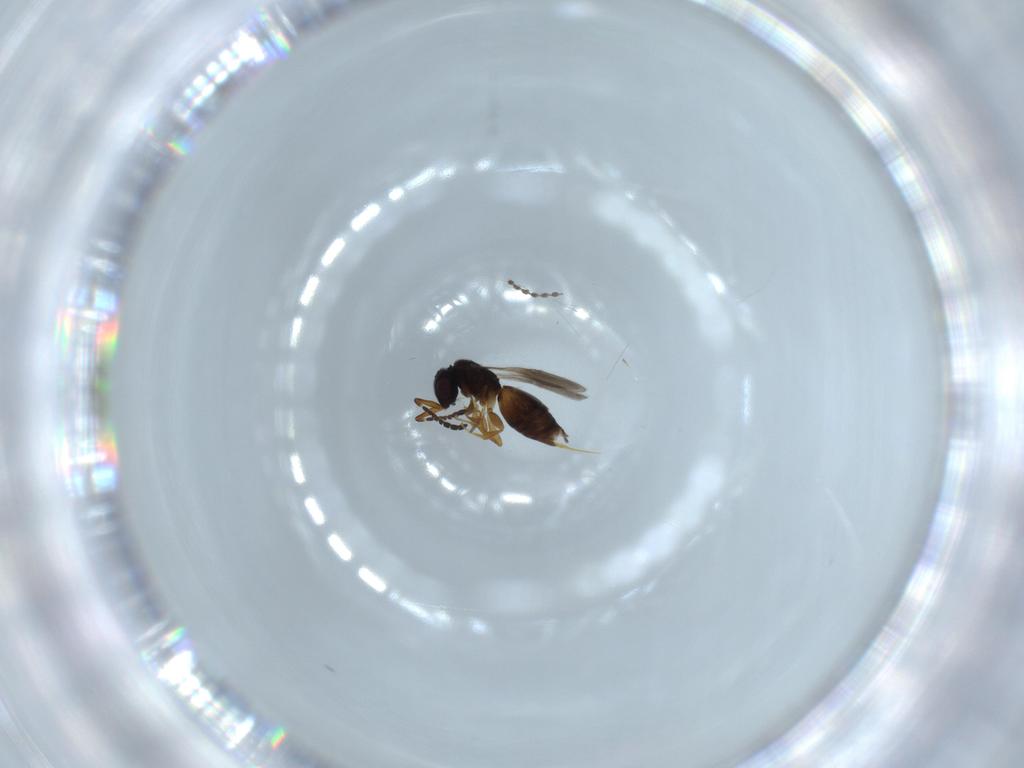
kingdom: Animalia
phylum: Arthropoda
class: Insecta
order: Hymenoptera
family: Ceraphronidae
